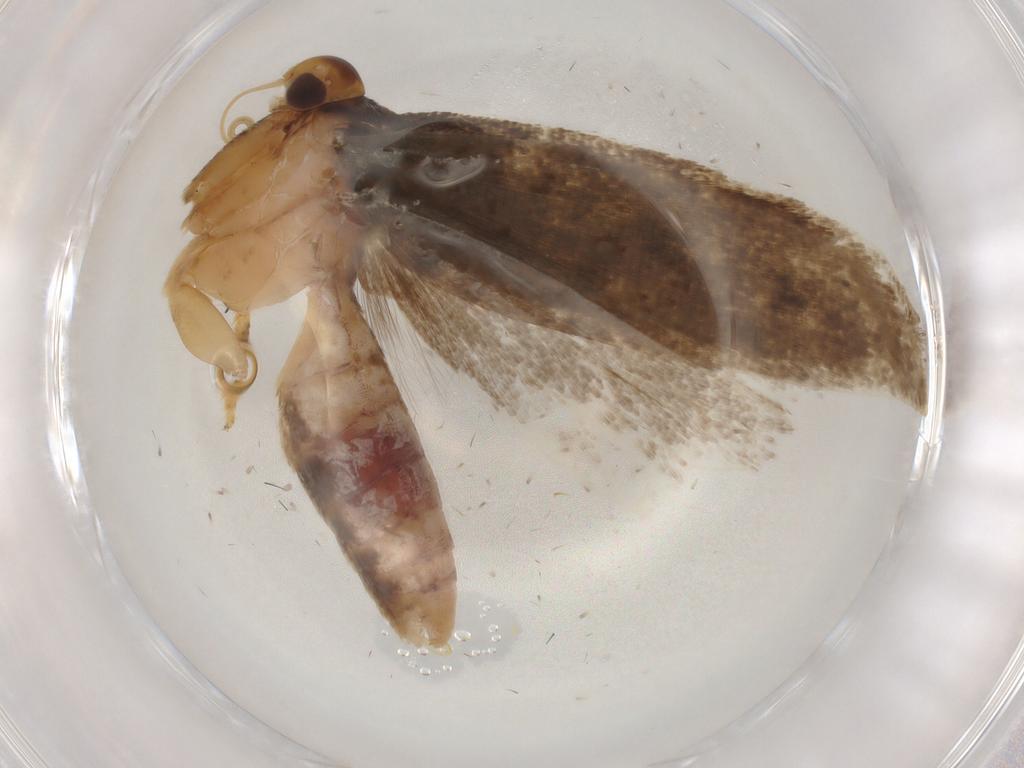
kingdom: Animalia
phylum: Arthropoda
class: Insecta
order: Lepidoptera
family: Gelechiidae
